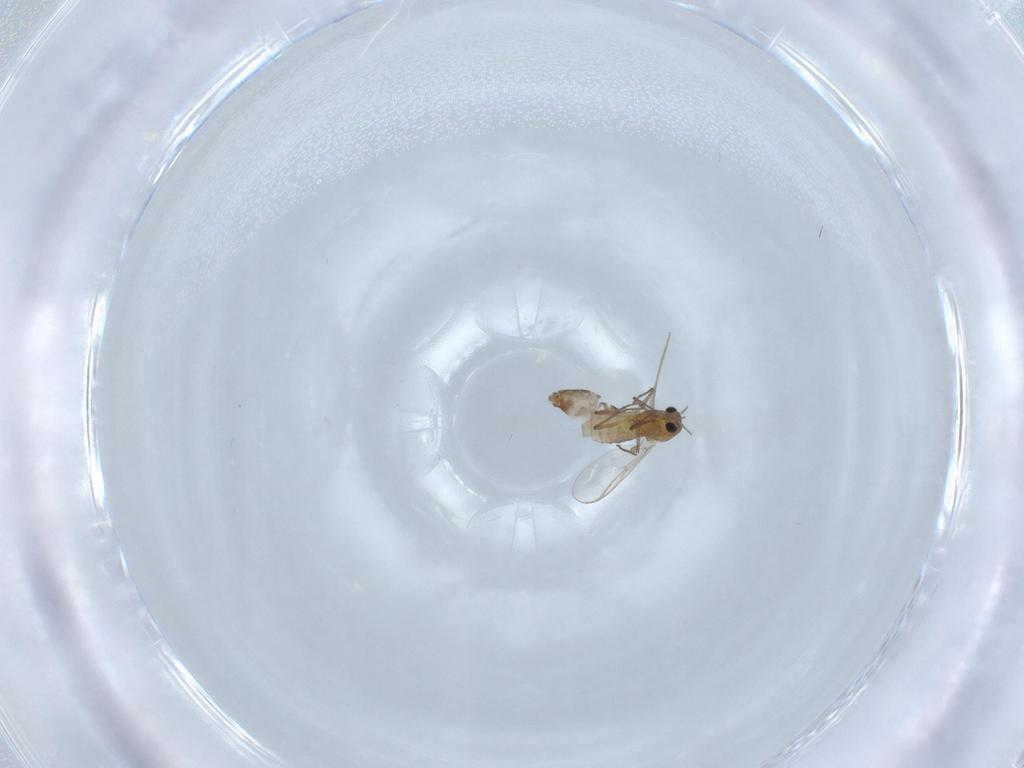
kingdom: Animalia
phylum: Arthropoda
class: Insecta
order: Diptera
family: Chironomidae
